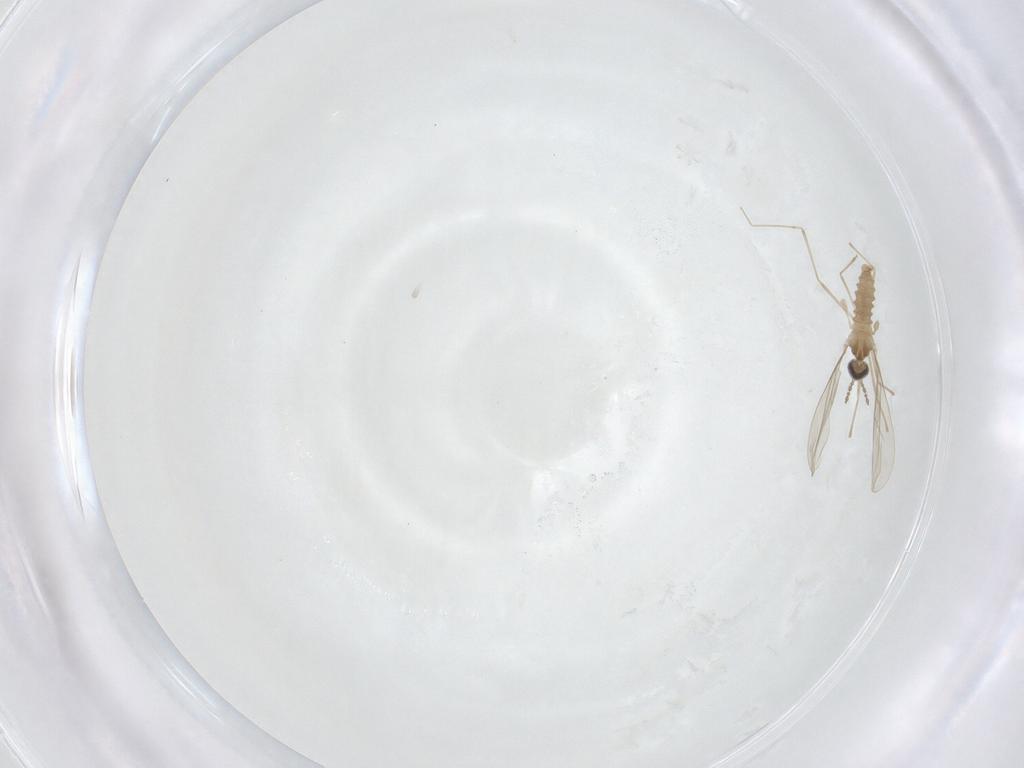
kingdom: Animalia
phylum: Arthropoda
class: Insecta
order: Diptera
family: Cecidomyiidae
